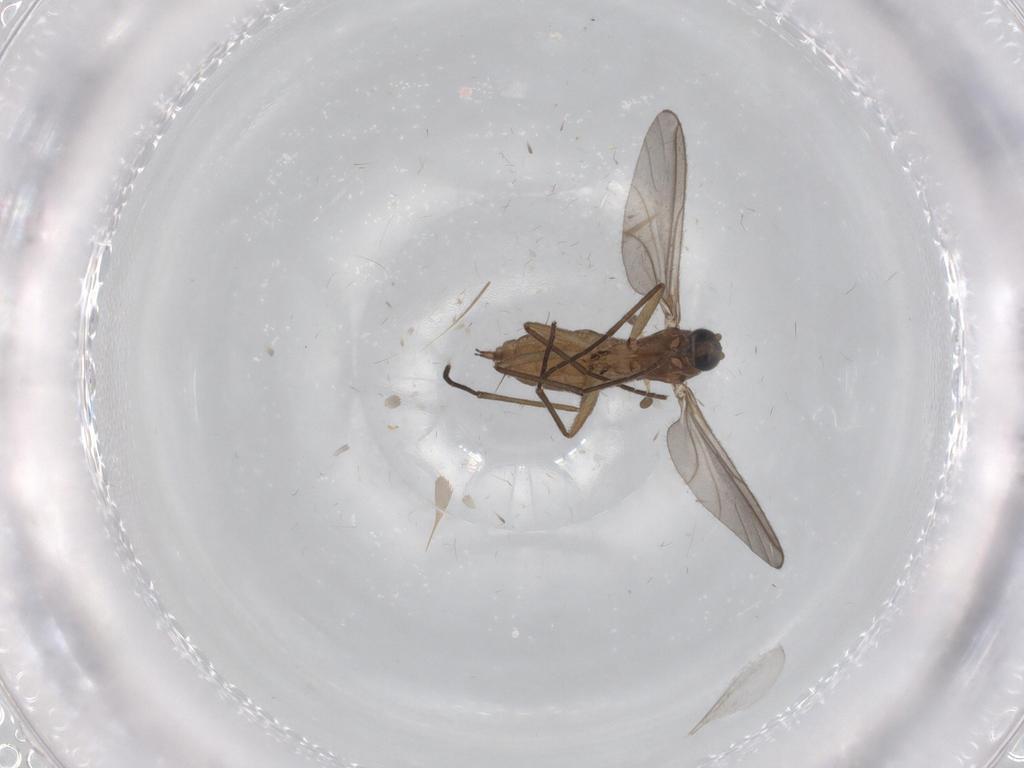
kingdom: Animalia
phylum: Arthropoda
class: Insecta
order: Diptera
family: Sciaridae
